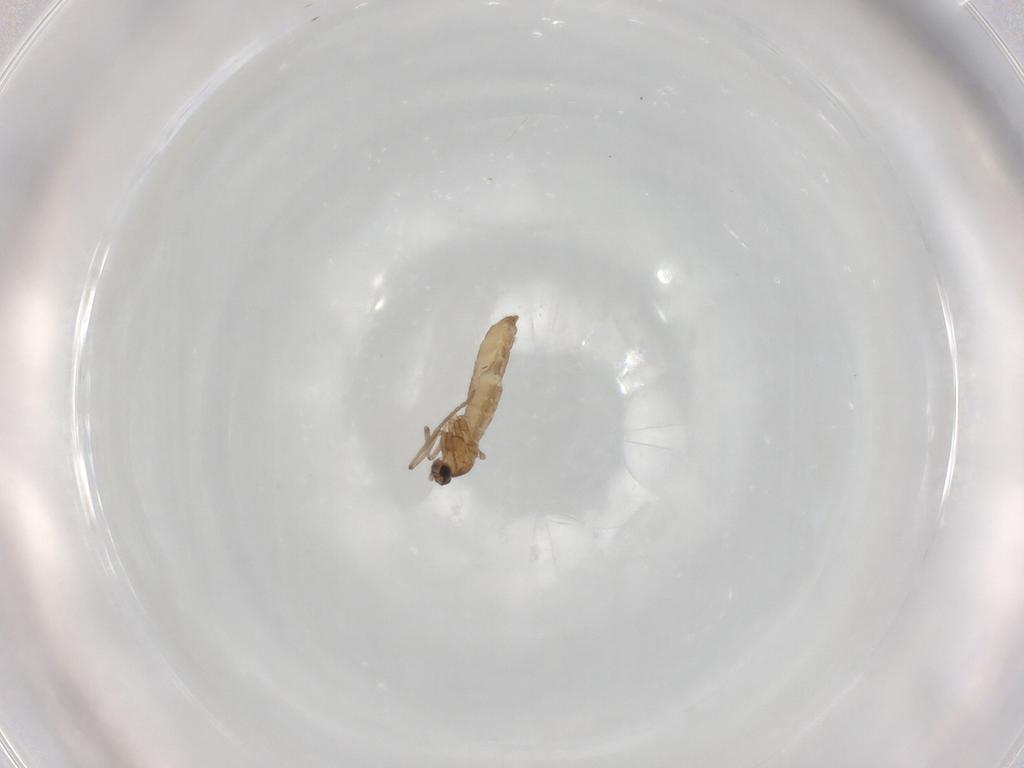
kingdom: Animalia
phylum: Arthropoda
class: Insecta
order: Diptera
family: Cecidomyiidae
